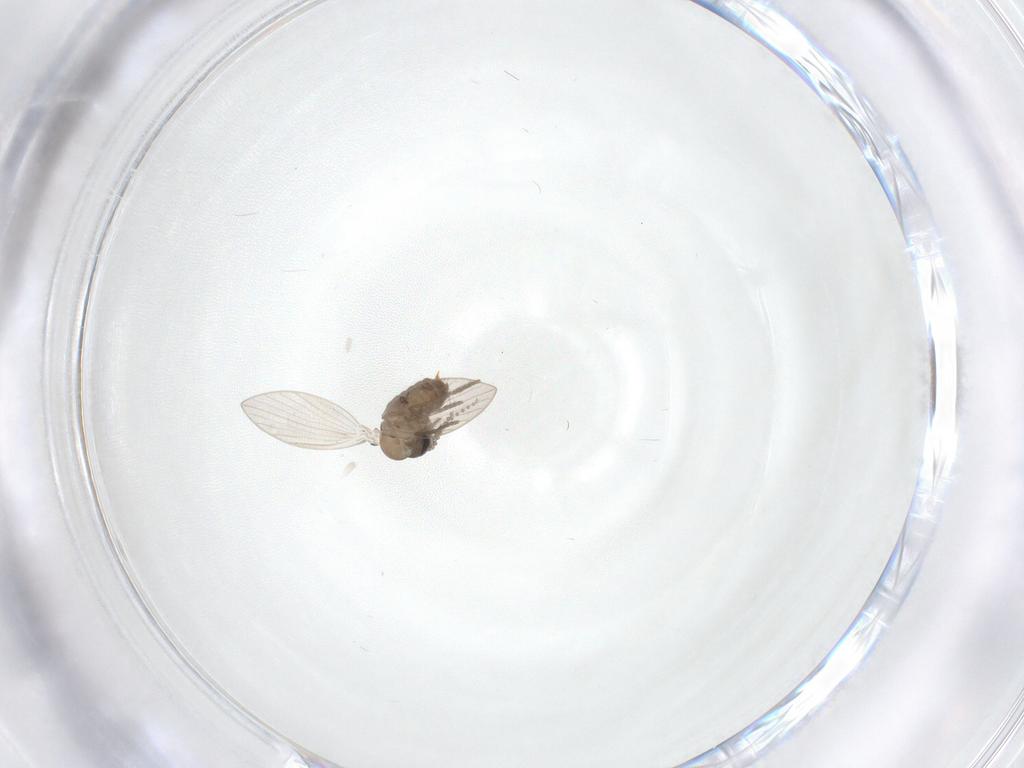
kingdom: Animalia
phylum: Arthropoda
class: Insecta
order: Diptera
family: Psychodidae
